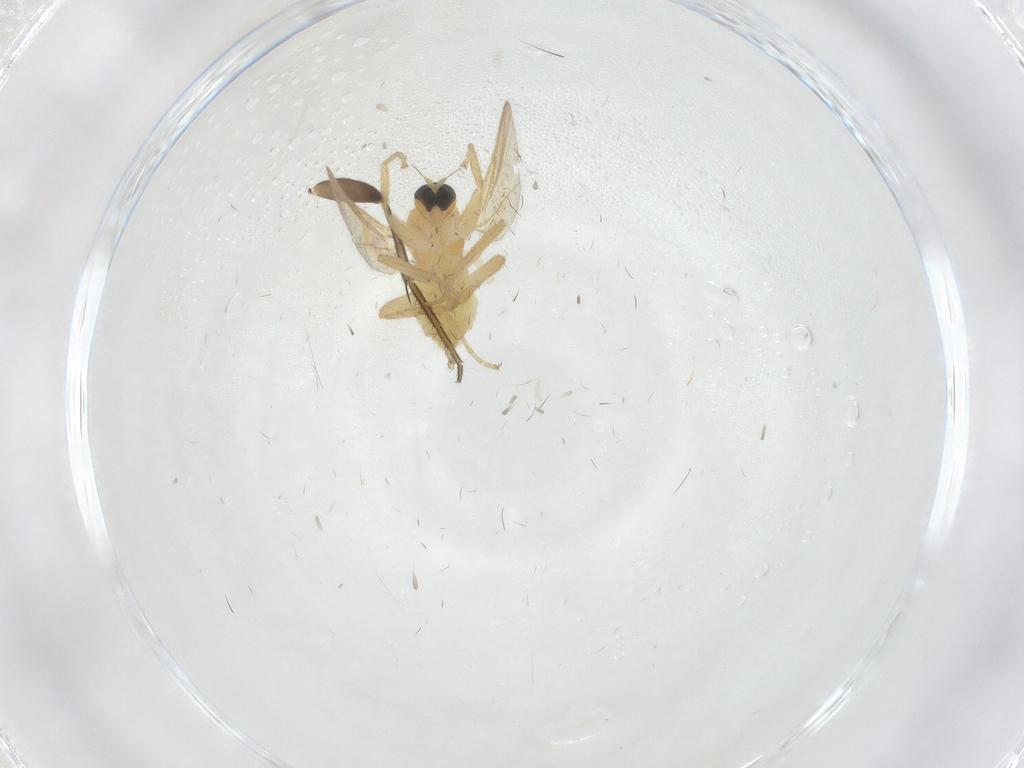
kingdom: Animalia
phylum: Arthropoda
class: Insecta
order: Diptera
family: Hybotidae
